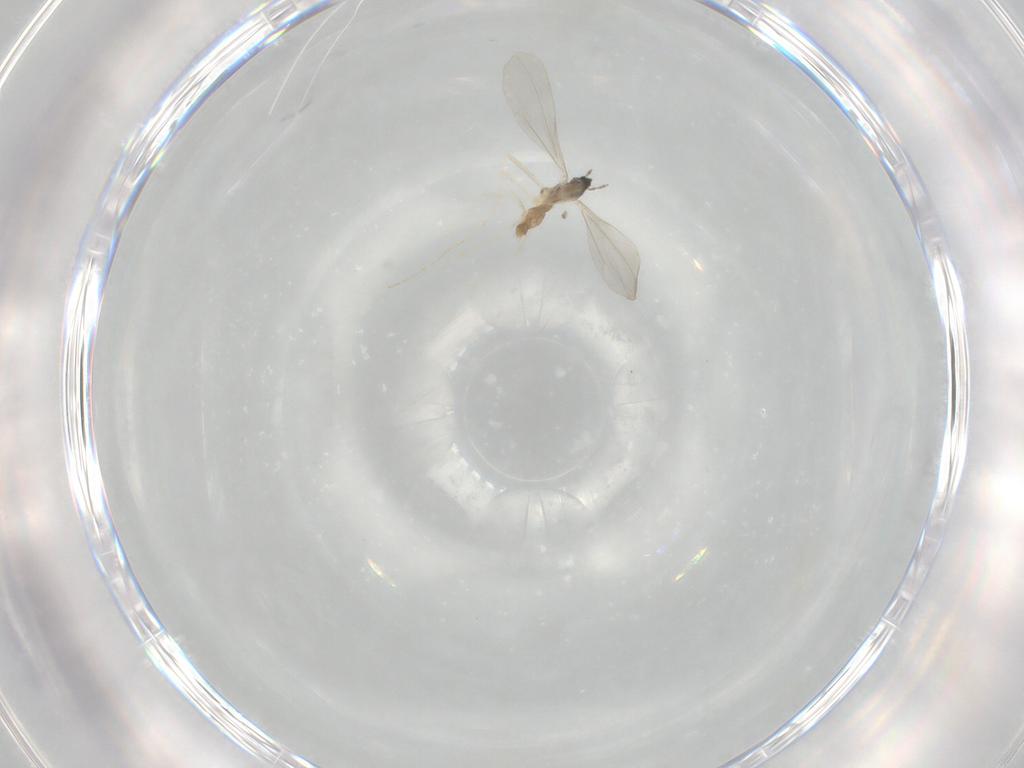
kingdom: Animalia
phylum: Arthropoda
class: Insecta
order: Diptera
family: Cecidomyiidae
